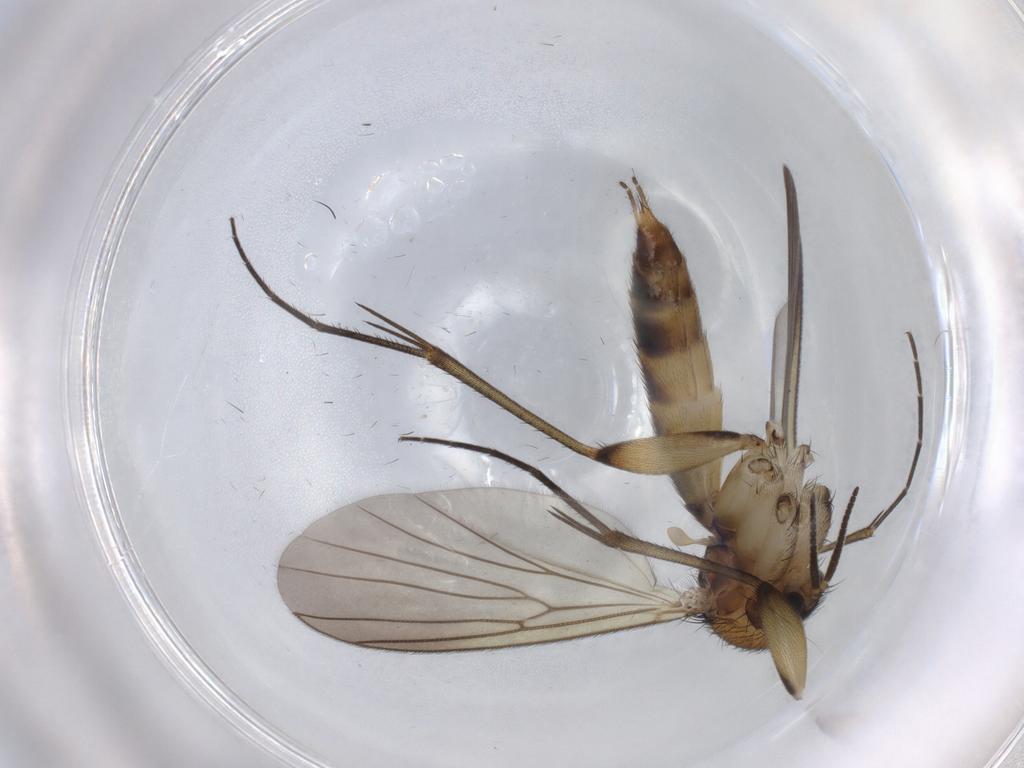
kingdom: Animalia
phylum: Arthropoda
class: Insecta
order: Diptera
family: Mycetophilidae
